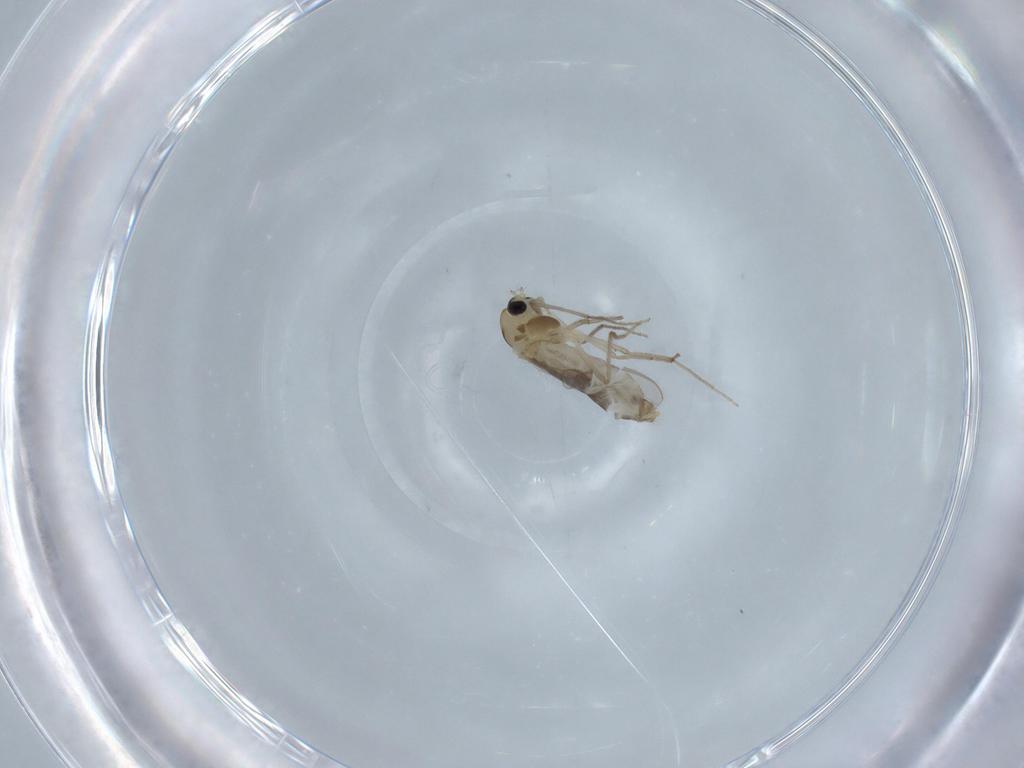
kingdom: Animalia
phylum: Arthropoda
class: Insecta
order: Diptera
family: Chironomidae
